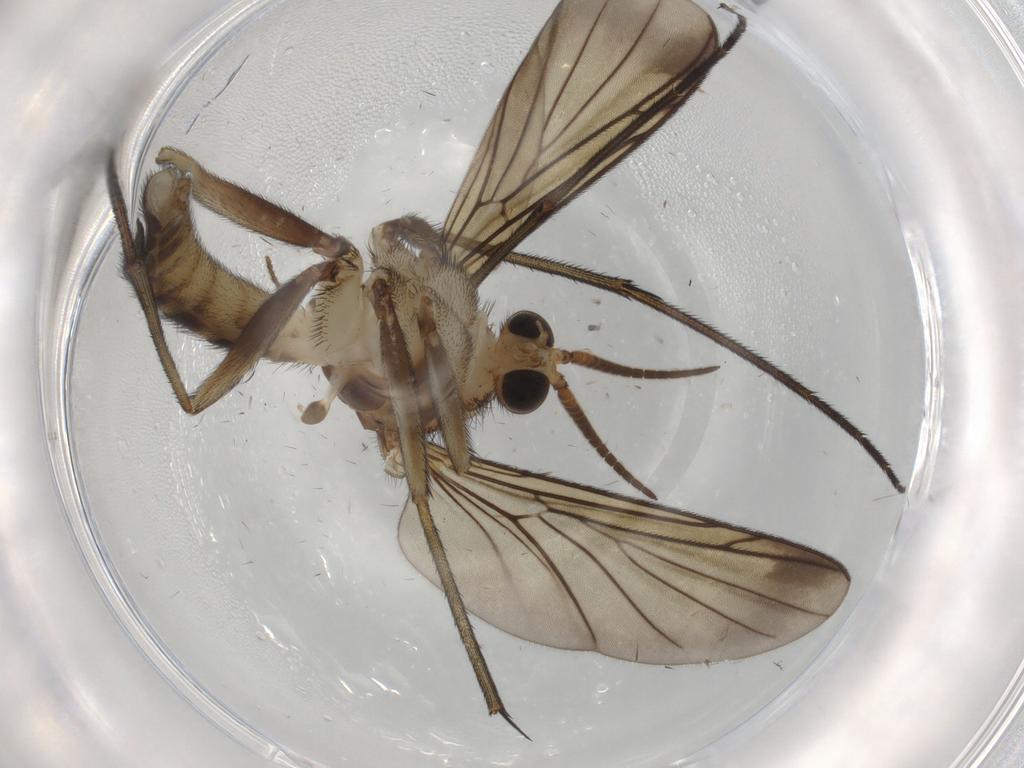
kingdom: Animalia
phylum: Arthropoda
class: Insecta
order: Diptera
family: Dolichopodidae
